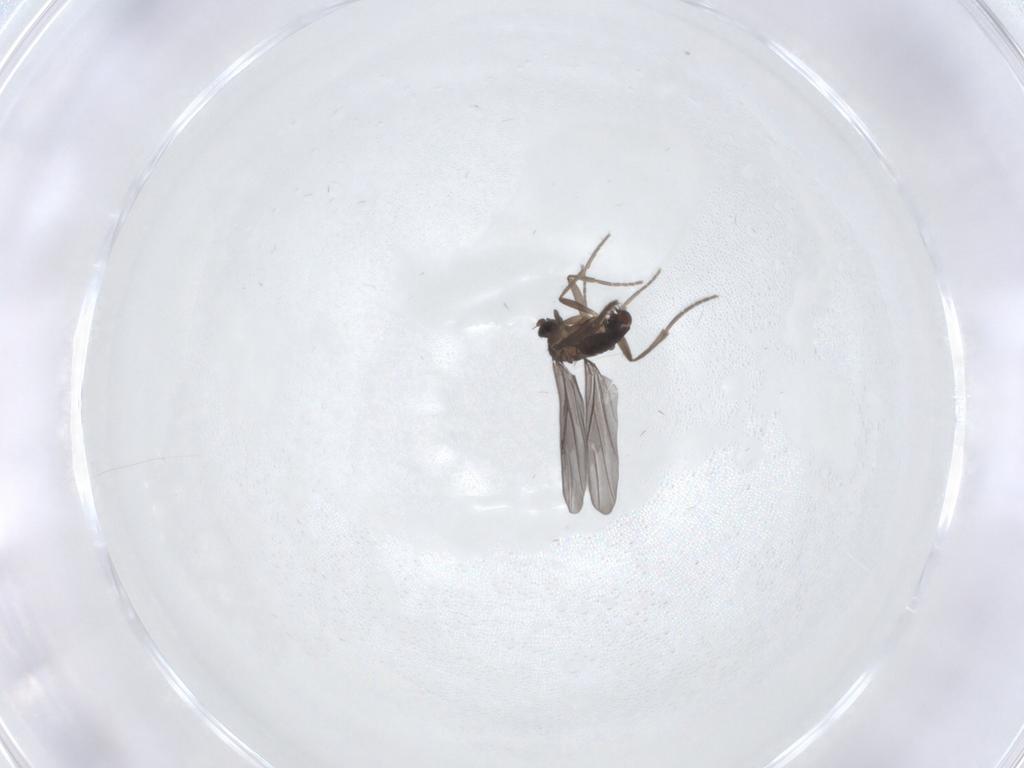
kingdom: Animalia
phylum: Arthropoda
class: Insecta
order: Diptera
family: Phoridae
